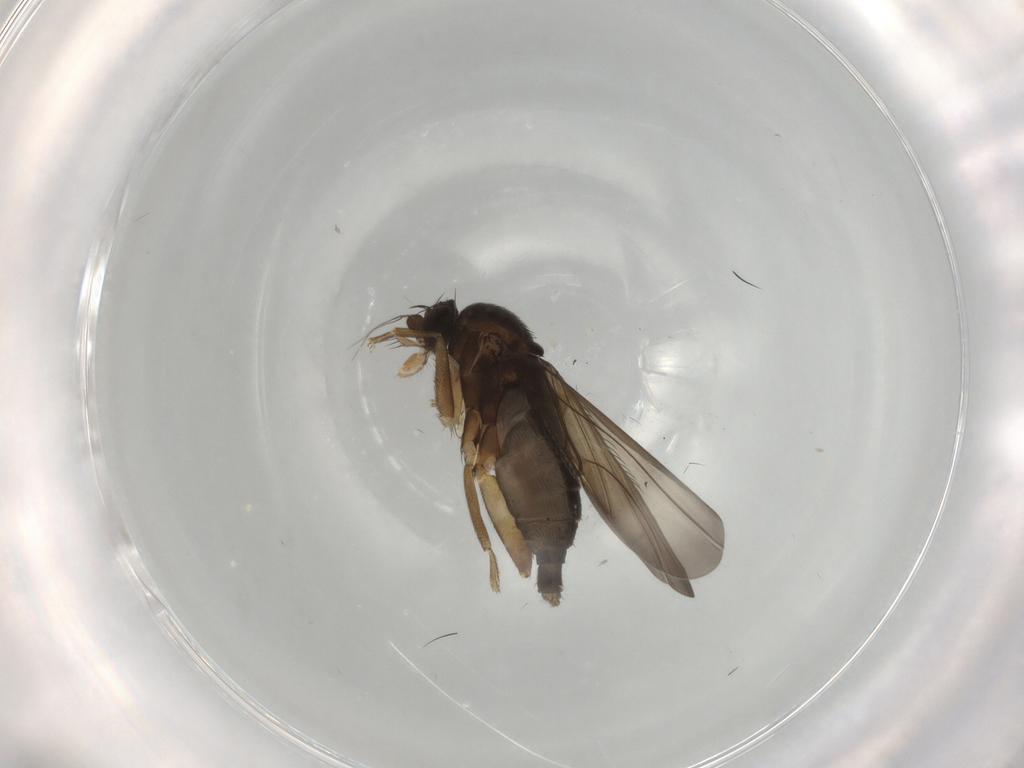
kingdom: Animalia
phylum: Arthropoda
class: Insecta
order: Diptera
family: Phoridae
